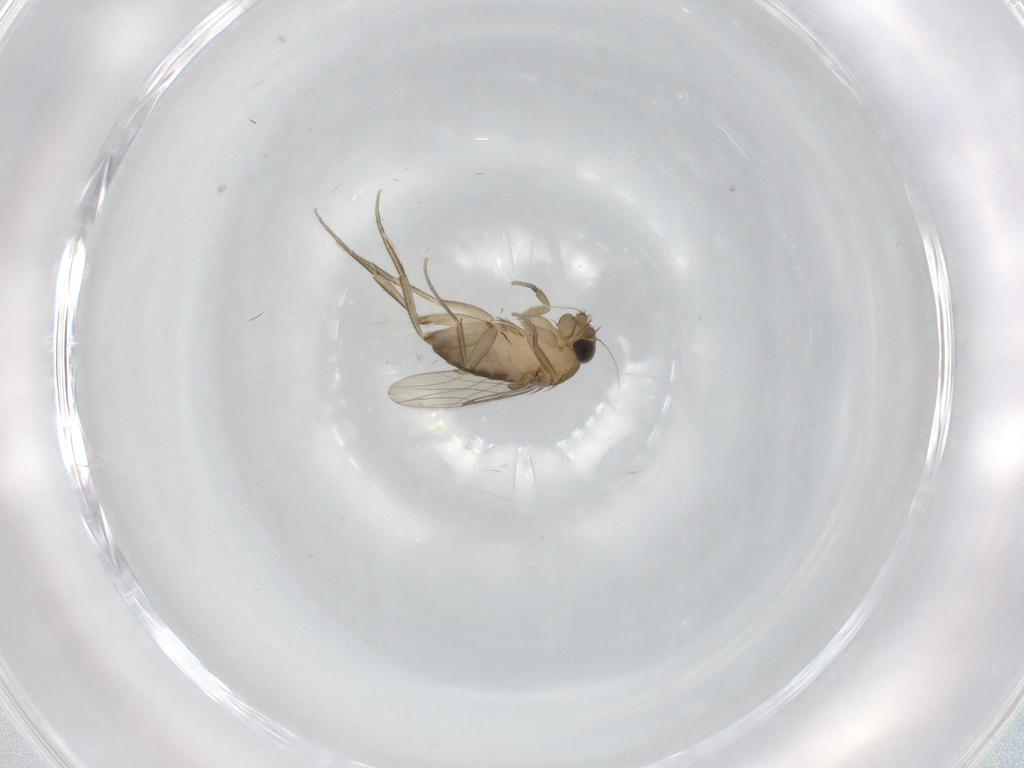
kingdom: Animalia
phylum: Arthropoda
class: Insecta
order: Diptera
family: Phoridae
